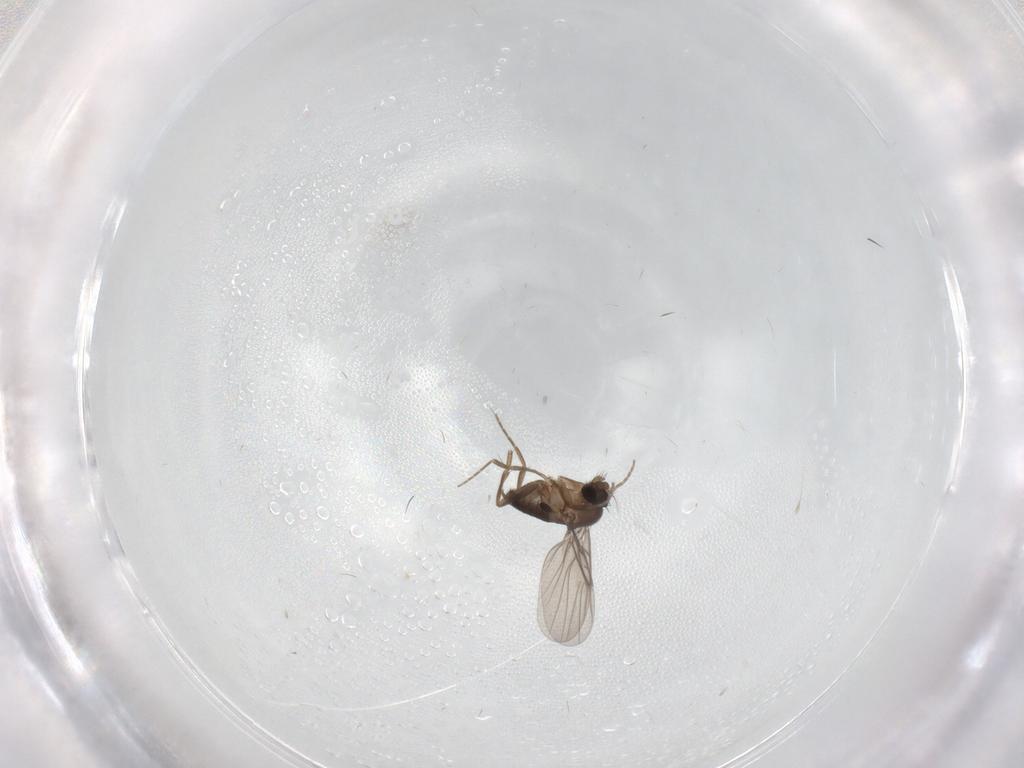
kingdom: Animalia
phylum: Arthropoda
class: Insecta
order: Diptera
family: Phoridae
